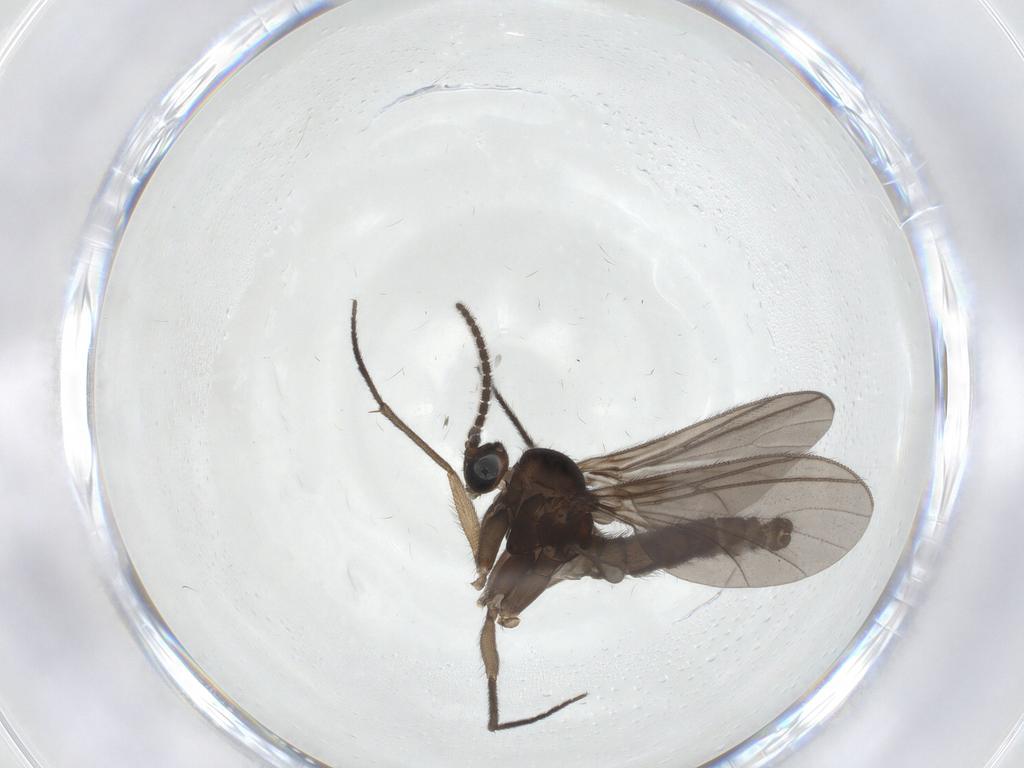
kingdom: Animalia
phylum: Arthropoda
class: Insecta
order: Diptera
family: Sciaridae
